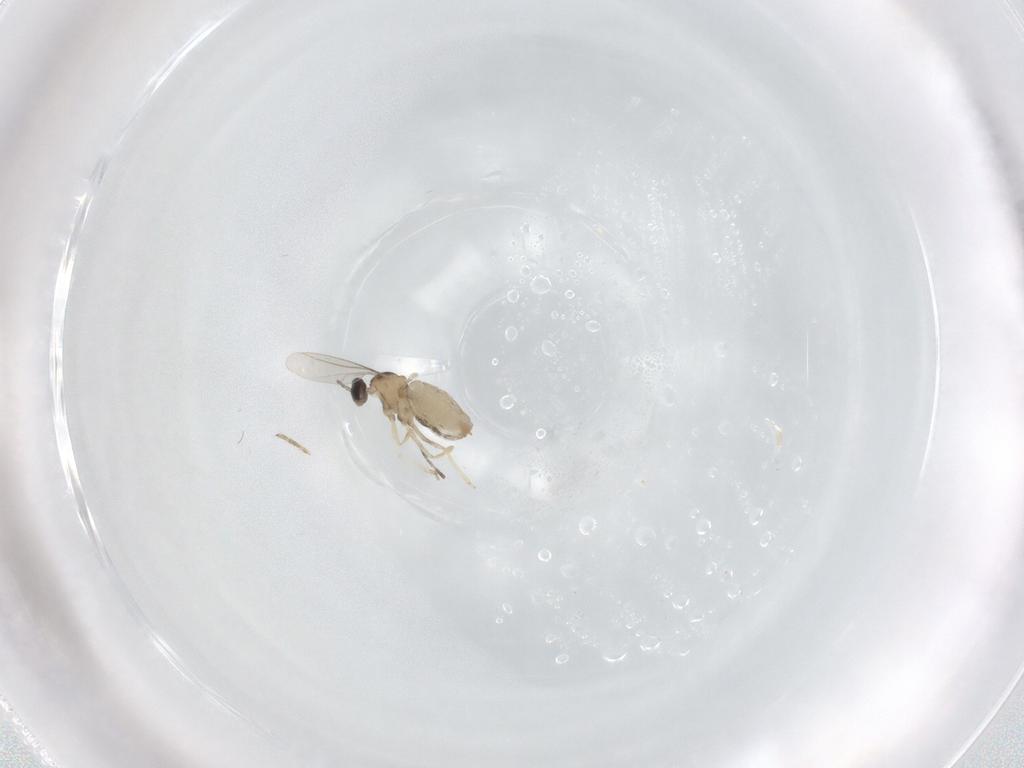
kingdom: Animalia
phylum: Arthropoda
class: Insecta
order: Diptera
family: Cecidomyiidae
